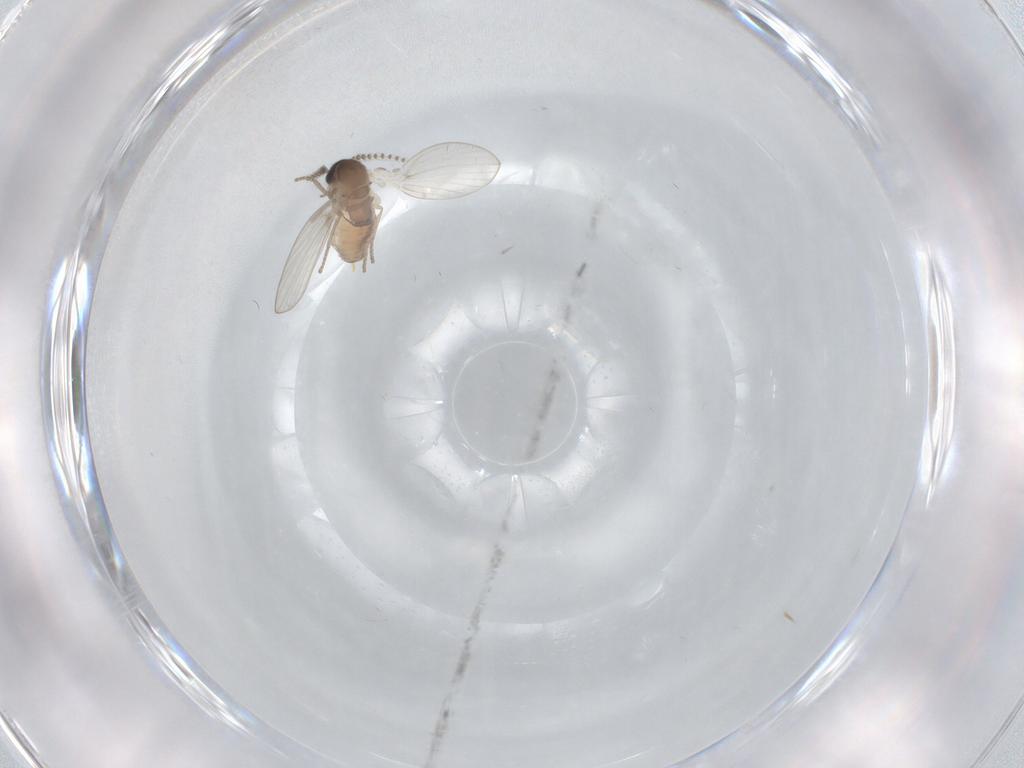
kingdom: Animalia
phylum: Arthropoda
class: Insecta
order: Diptera
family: Psychodidae
